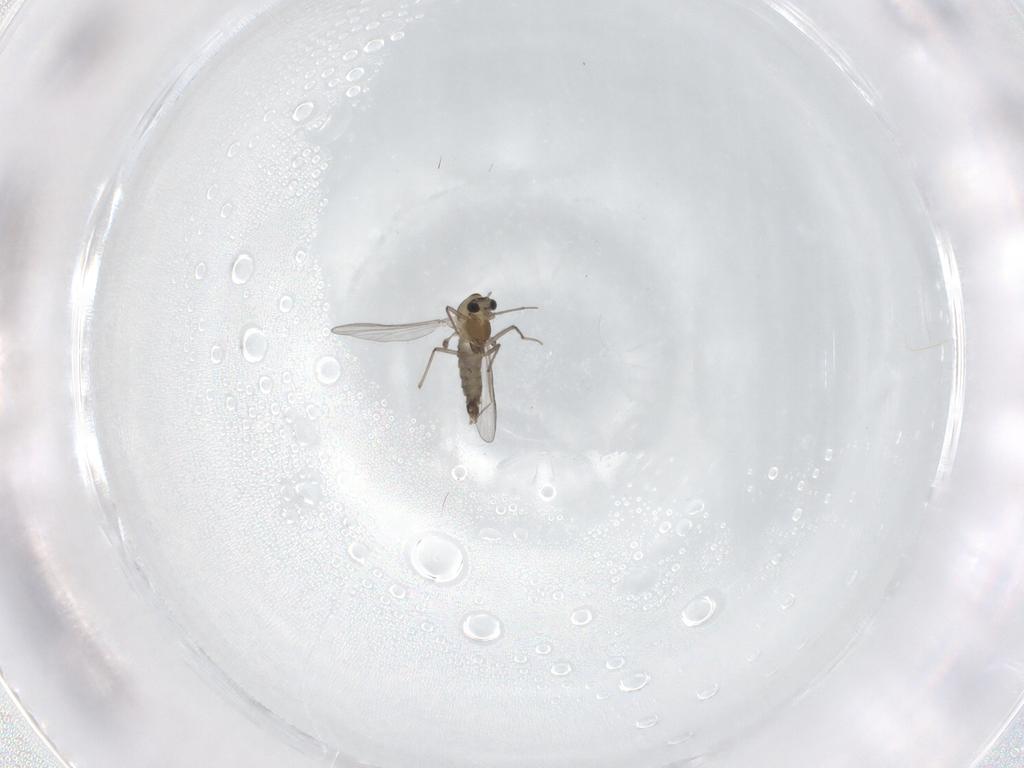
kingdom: Animalia
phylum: Arthropoda
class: Insecta
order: Diptera
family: Chironomidae
